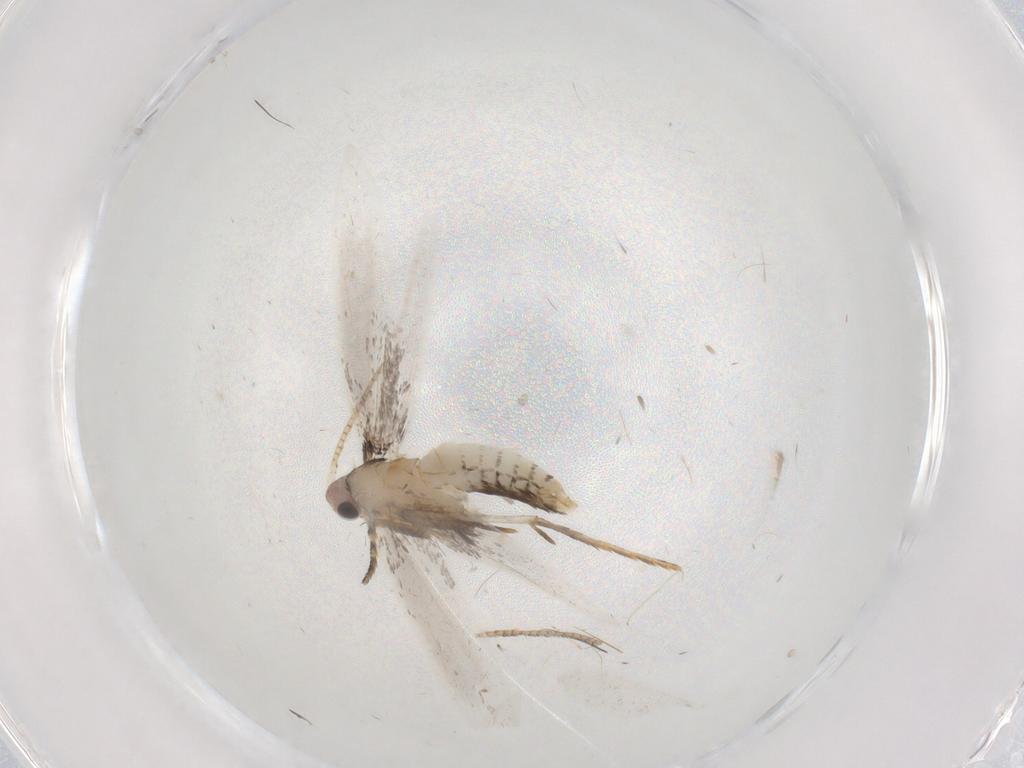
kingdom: Animalia
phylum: Arthropoda
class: Insecta
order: Lepidoptera
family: Tineidae
